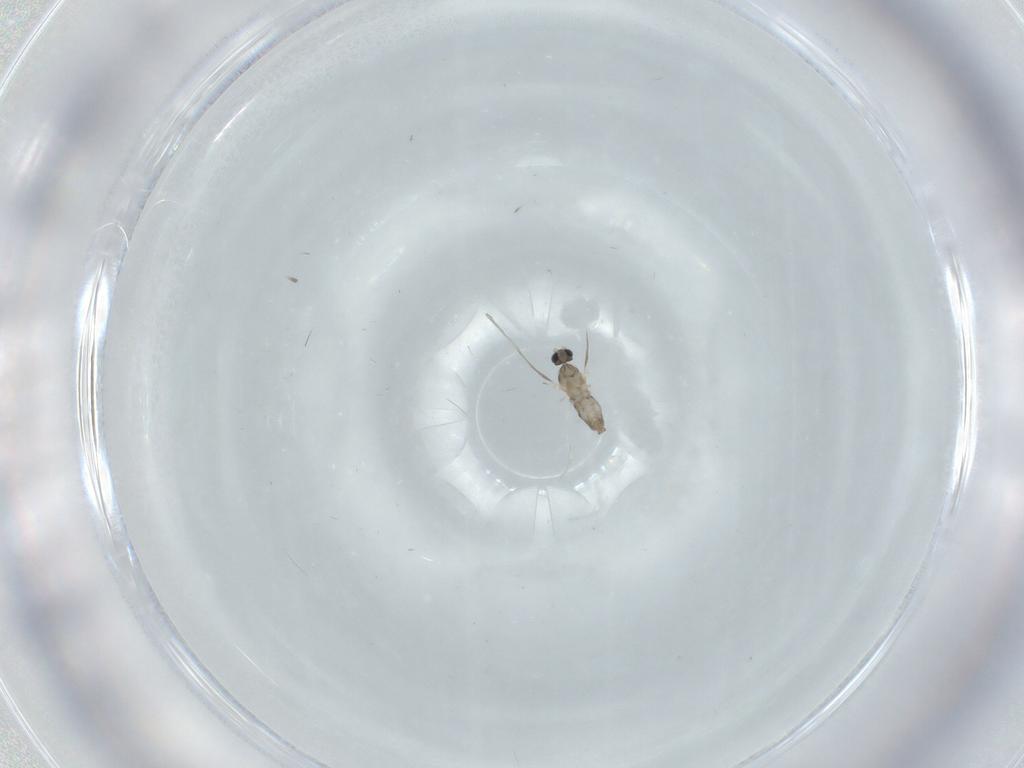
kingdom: Animalia
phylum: Arthropoda
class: Insecta
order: Diptera
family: Cecidomyiidae
